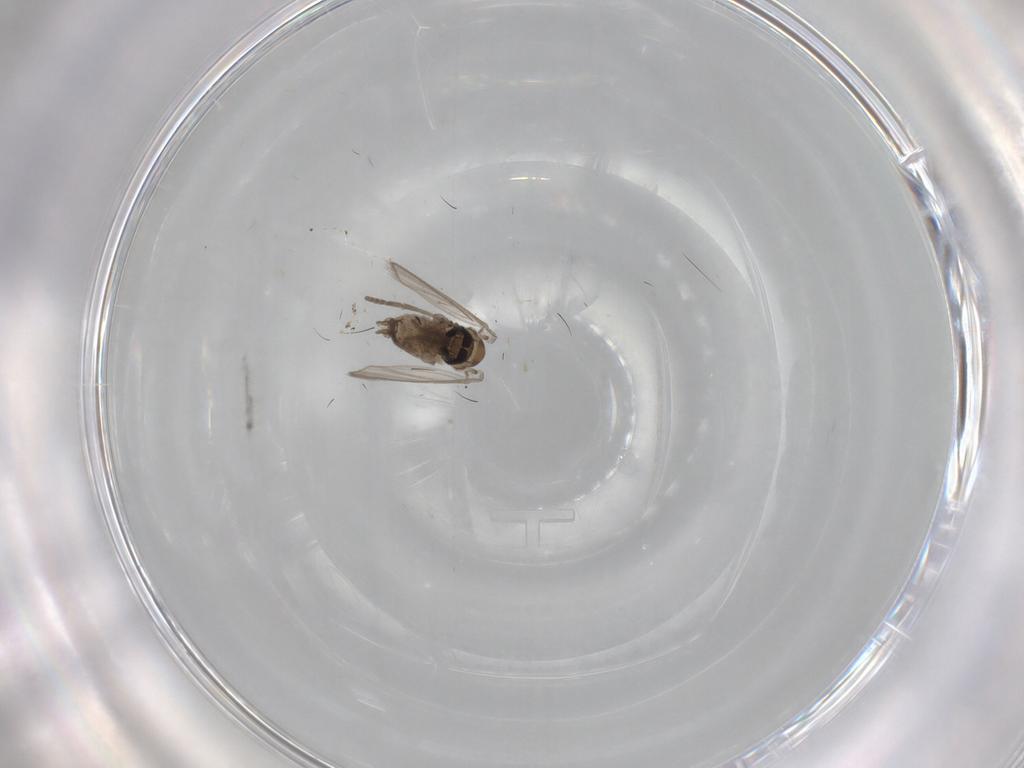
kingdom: Animalia
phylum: Arthropoda
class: Insecta
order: Diptera
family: Psychodidae
